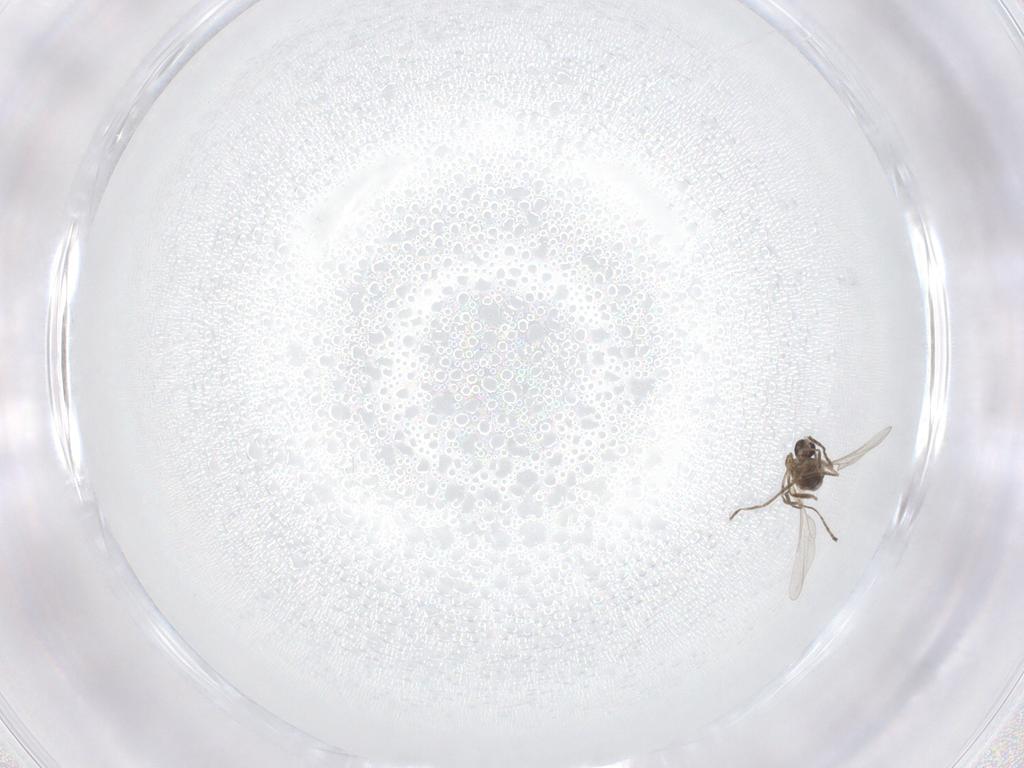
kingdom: Animalia
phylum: Arthropoda
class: Insecta
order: Diptera
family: Cecidomyiidae
